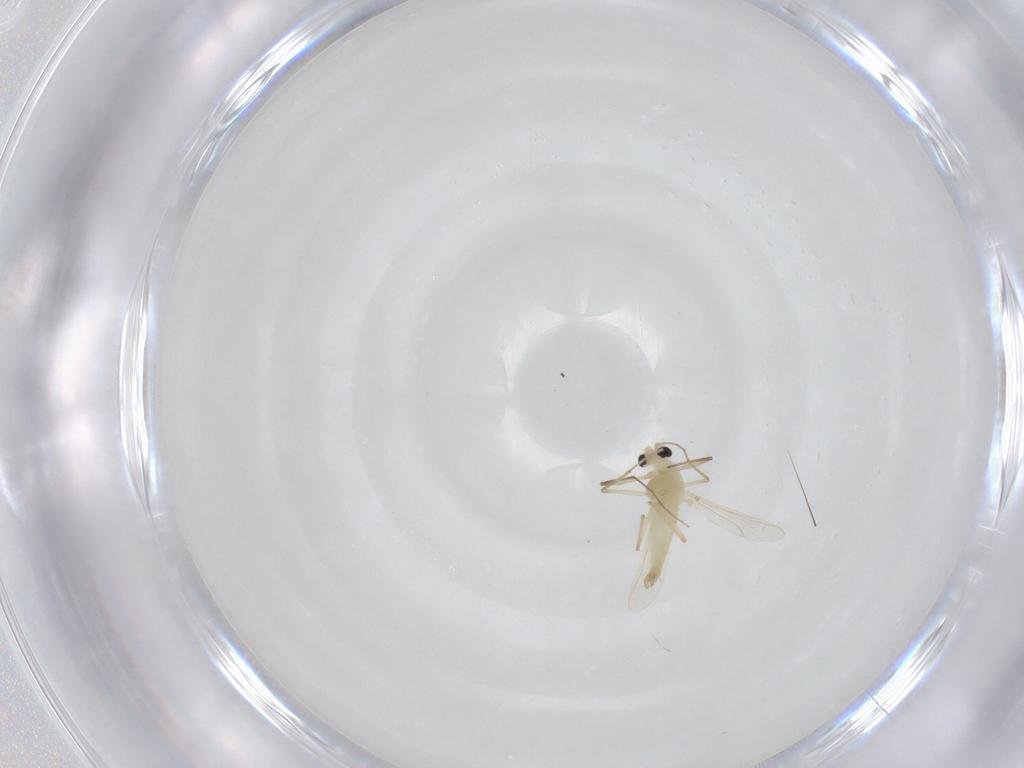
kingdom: Animalia
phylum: Arthropoda
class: Insecta
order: Diptera
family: Chironomidae
